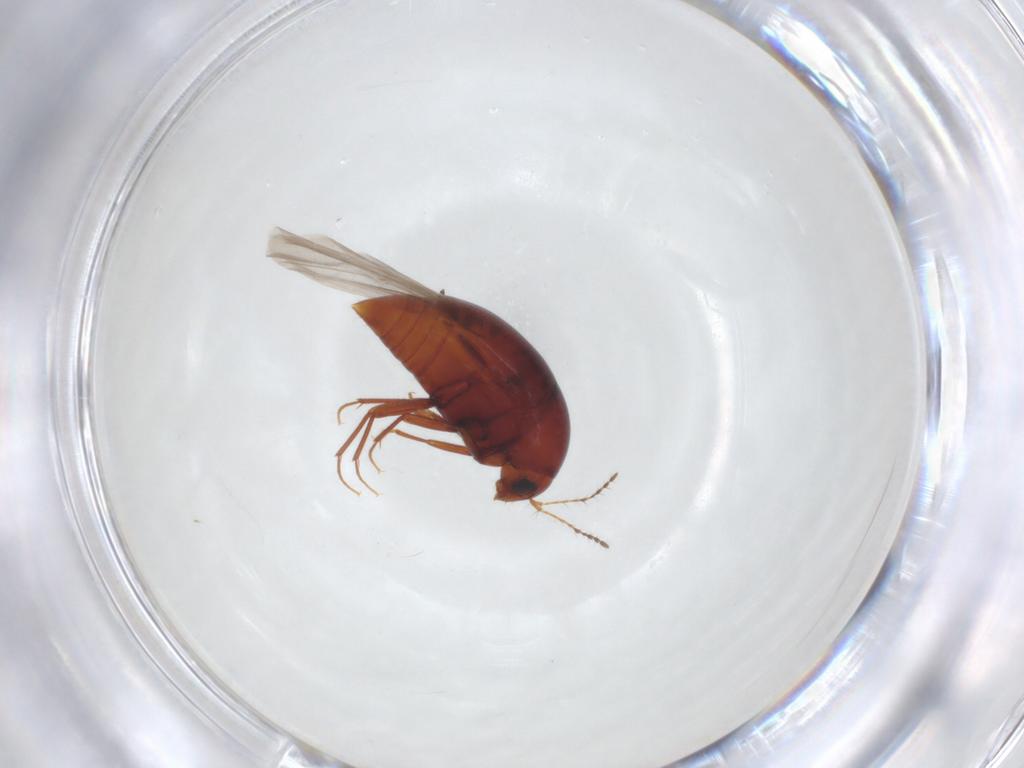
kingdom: Animalia
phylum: Arthropoda
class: Insecta
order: Coleoptera
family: Staphylinidae
